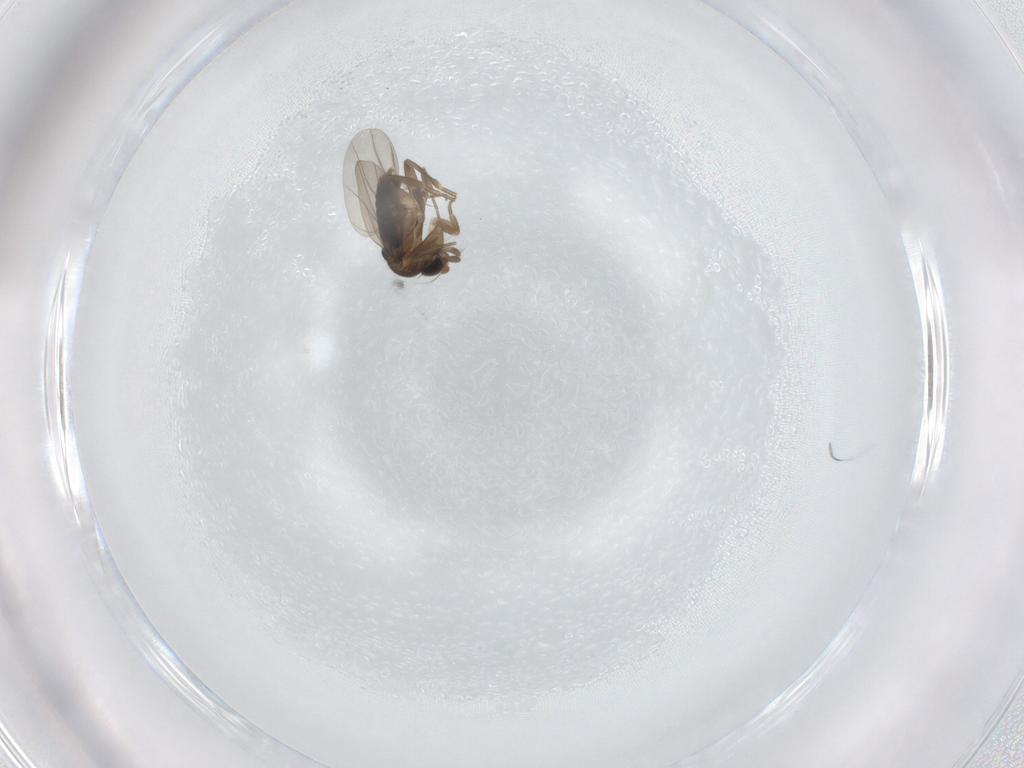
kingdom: Animalia
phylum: Arthropoda
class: Insecta
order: Diptera
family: Phoridae
